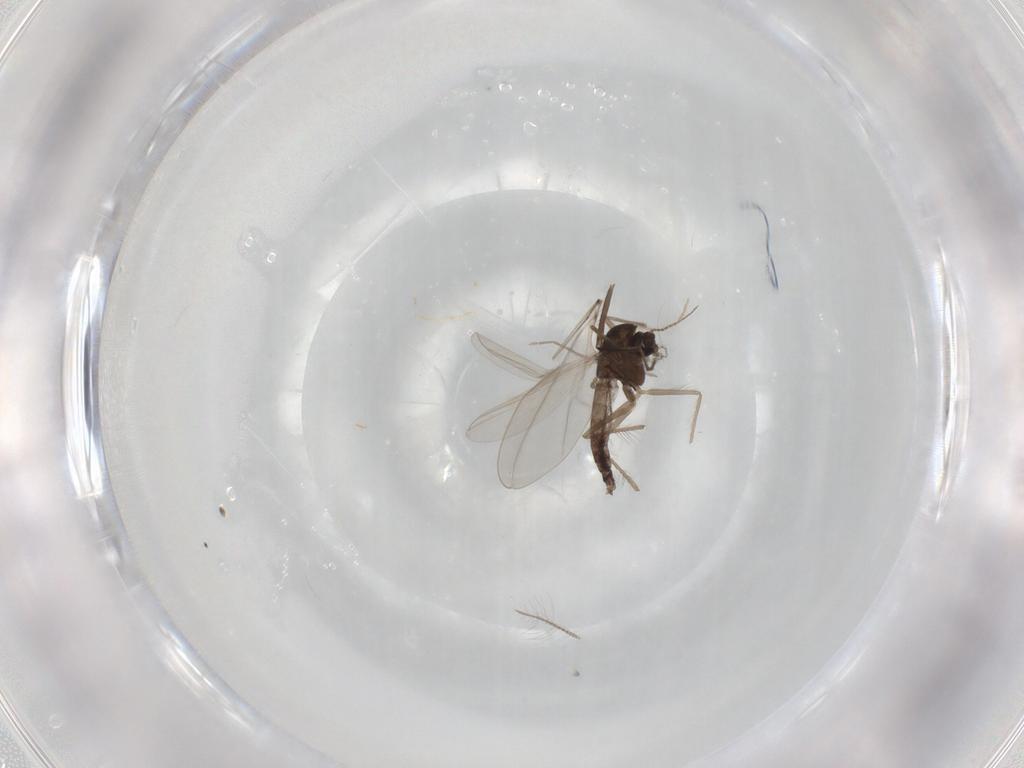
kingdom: Animalia
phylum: Arthropoda
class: Insecta
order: Diptera
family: Chironomidae
